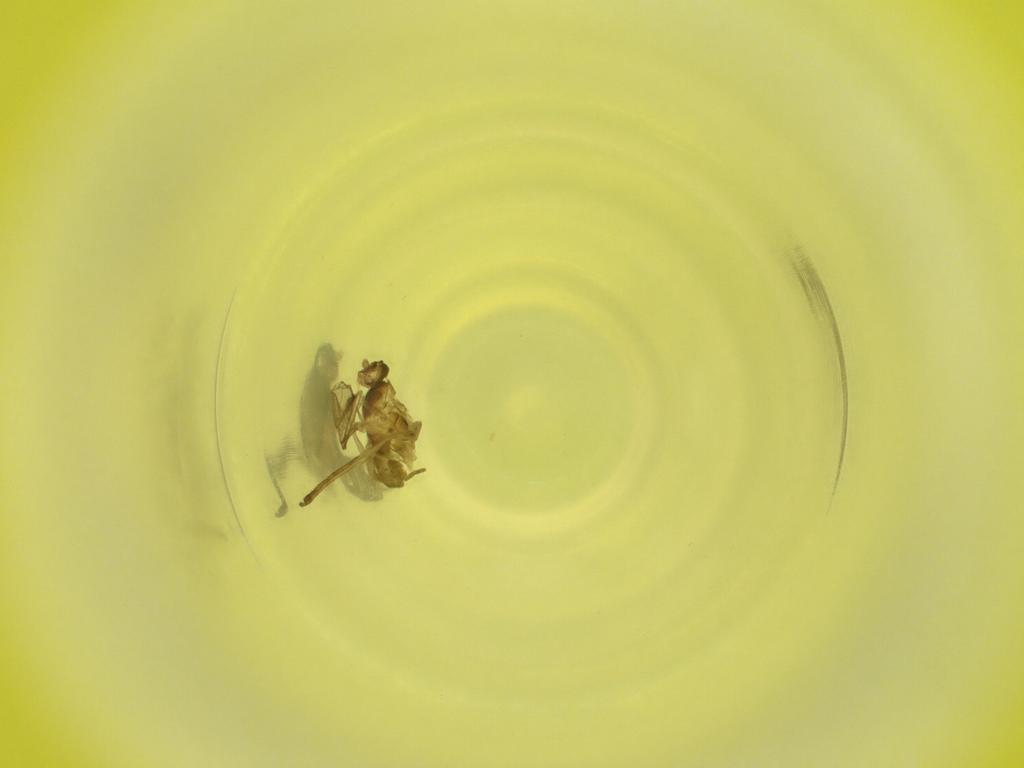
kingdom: Animalia
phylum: Arthropoda
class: Insecta
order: Diptera
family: Cecidomyiidae
